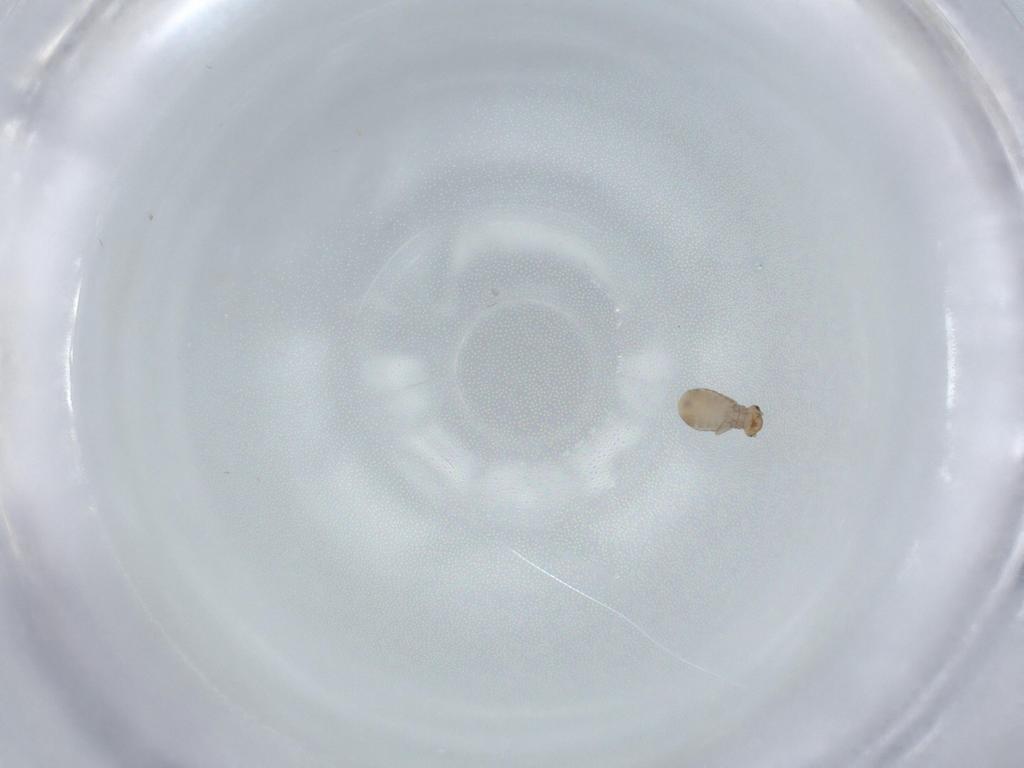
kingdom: Animalia
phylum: Arthropoda
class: Insecta
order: Psocodea
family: Liposcelididae
